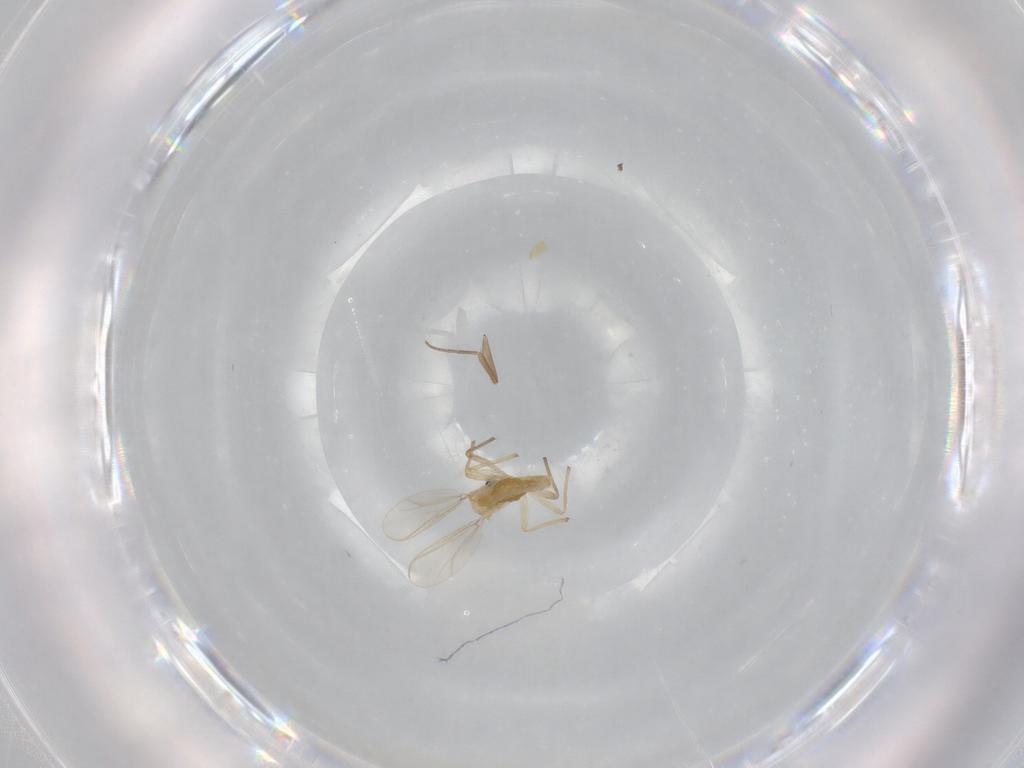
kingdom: Animalia
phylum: Arthropoda
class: Insecta
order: Diptera
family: Chironomidae
